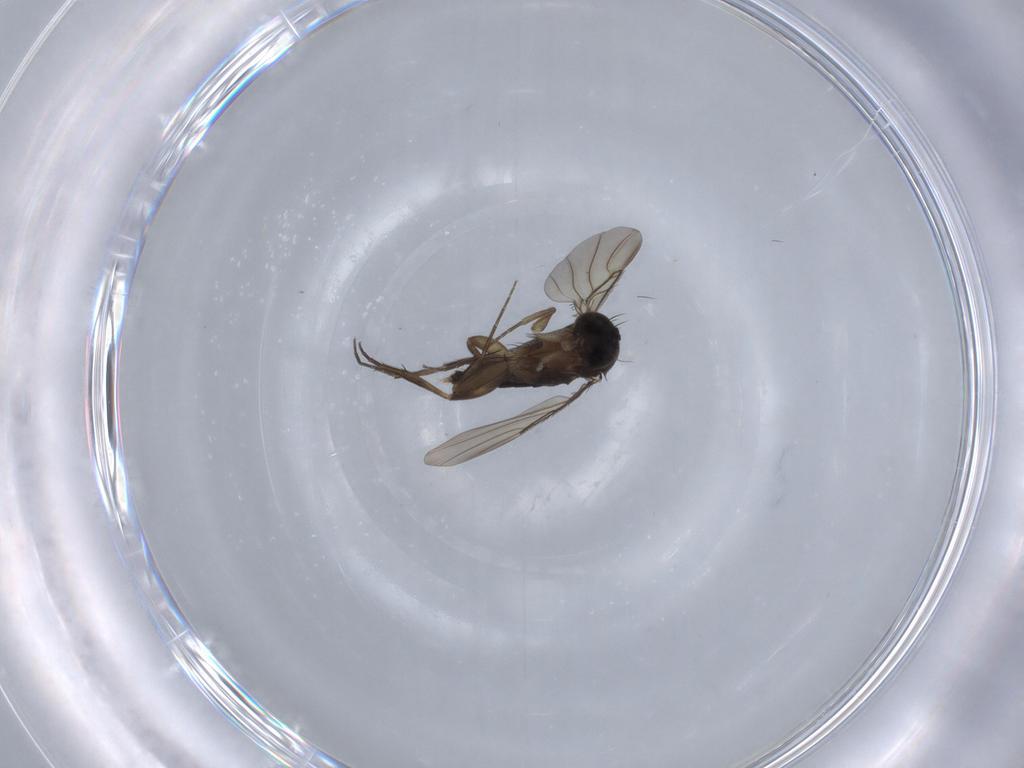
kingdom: Animalia
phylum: Arthropoda
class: Insecta
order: Diptera
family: Phoridae
